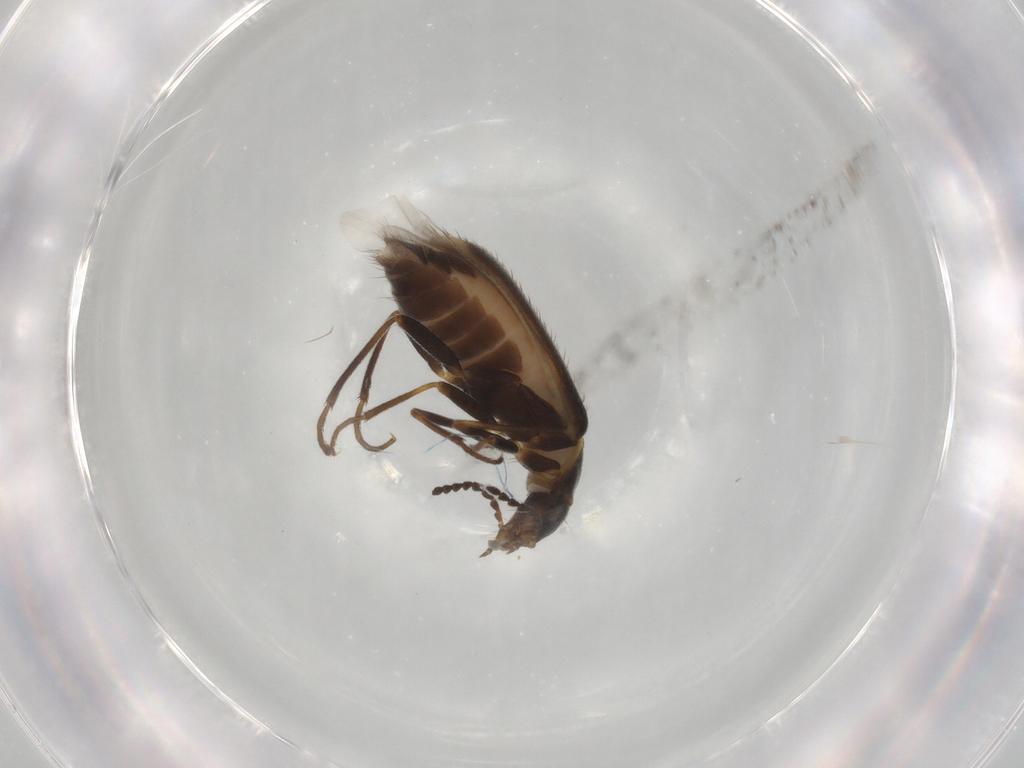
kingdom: Animalia
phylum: Arthropoda
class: Insecta
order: Coleoptera
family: Dasytidae
